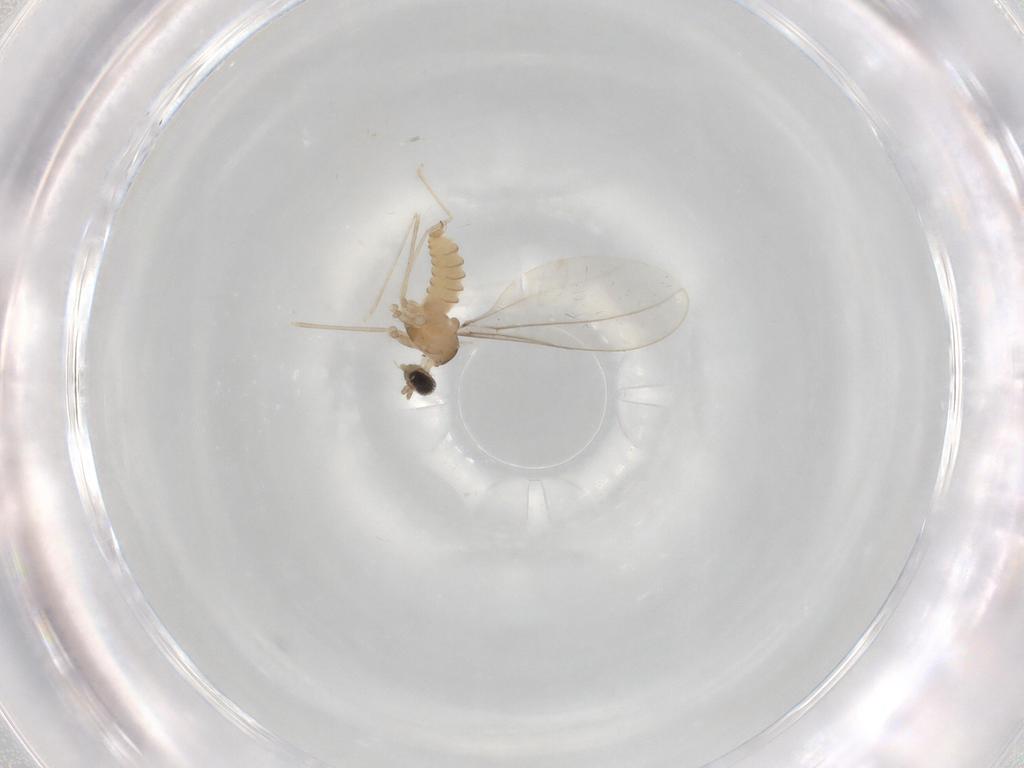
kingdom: Animalia
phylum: Arthropoda
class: Insecta
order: Diptera
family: Cecidomyiidae
